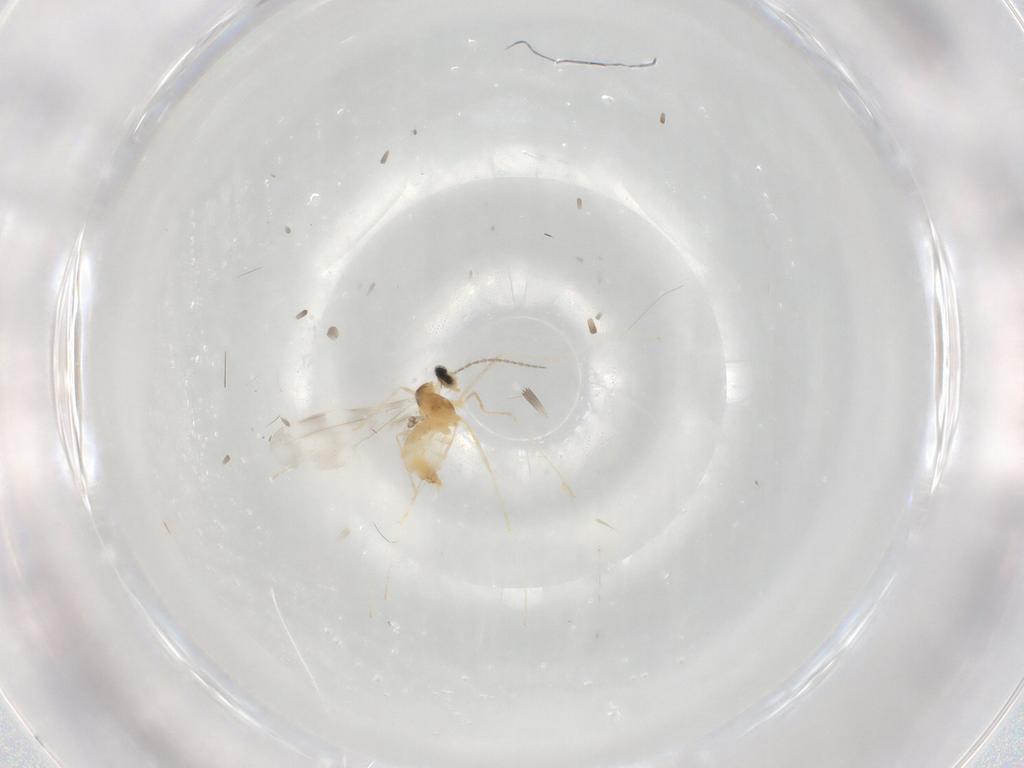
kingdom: Animalia
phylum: Arthropoda
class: Insecta
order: Diptera
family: Cecidomyiidae
